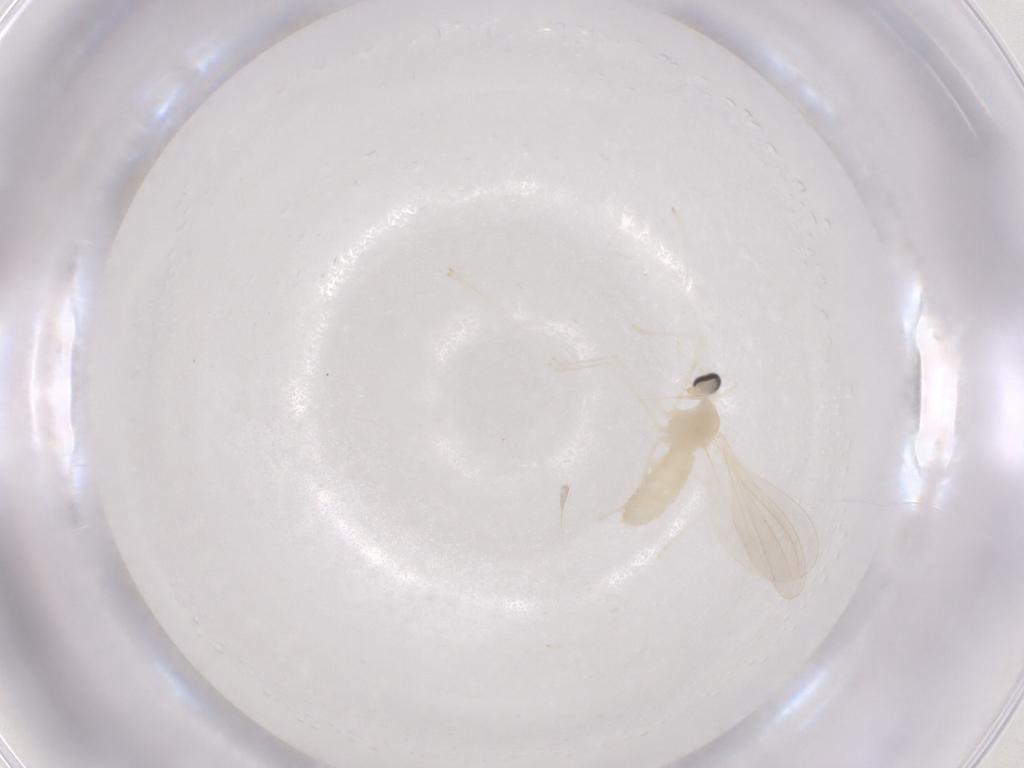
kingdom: Animalia
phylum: Arthropoda
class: Insecta
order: Diptera
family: Cecidomyiidae
